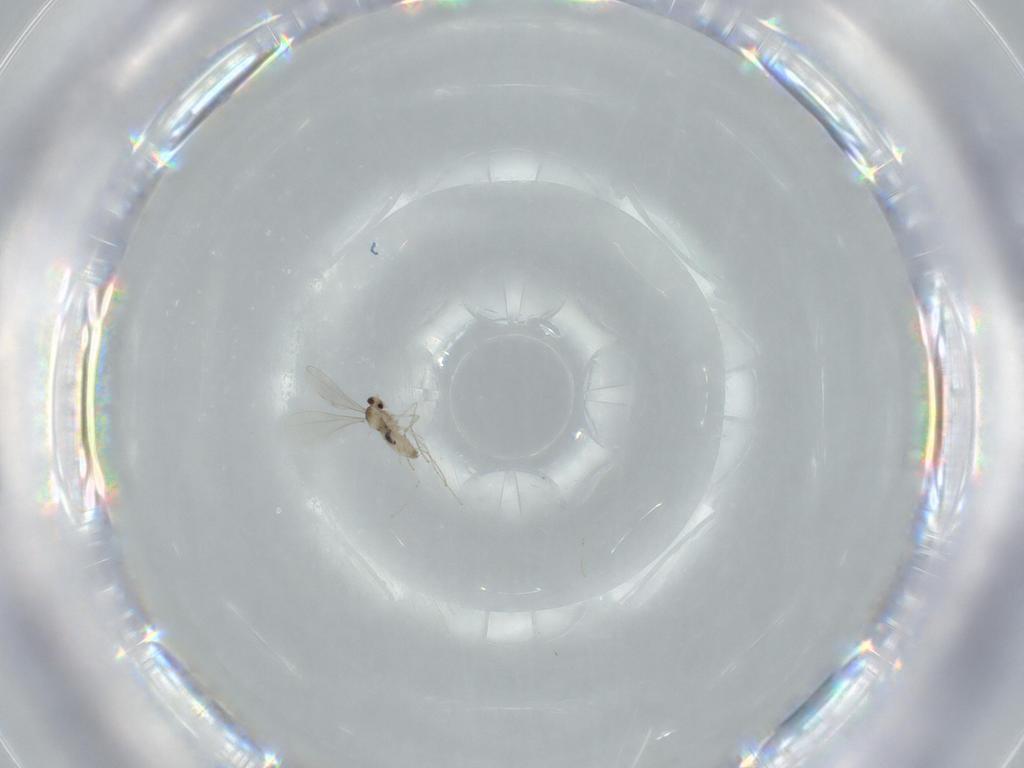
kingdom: Animalia
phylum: Arthropoda
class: Insecta
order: Diptera
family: Cecidomyiidae
